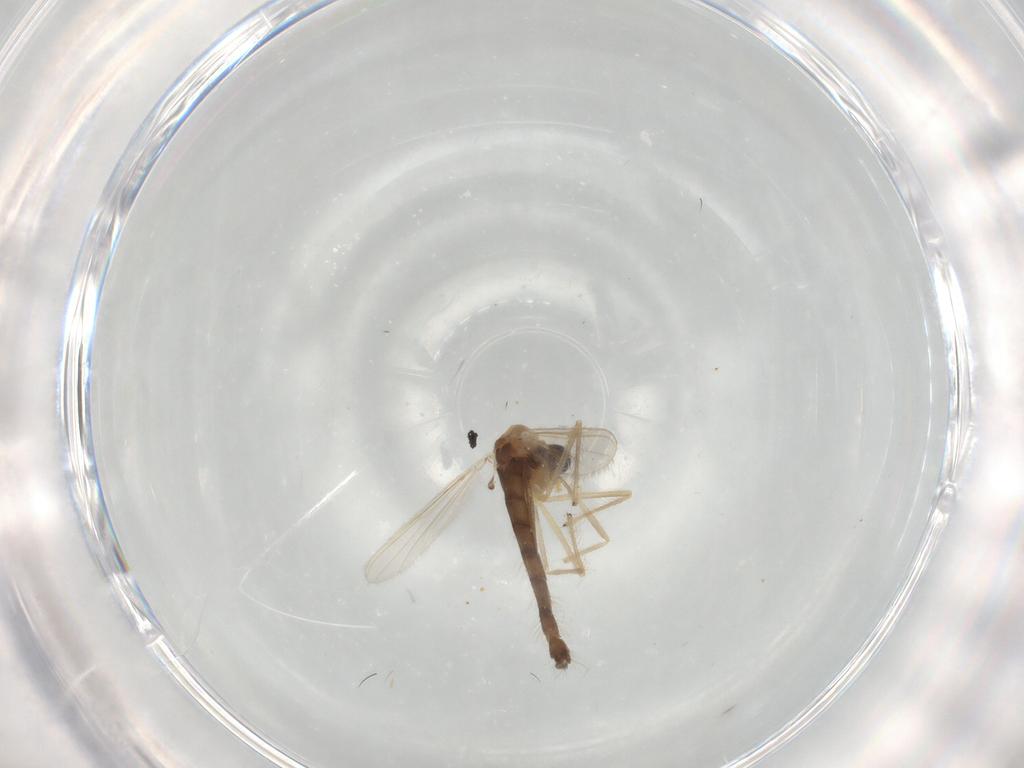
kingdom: Animalia
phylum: Arthropoda
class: Insecta
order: Diptera
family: Chironomidae
